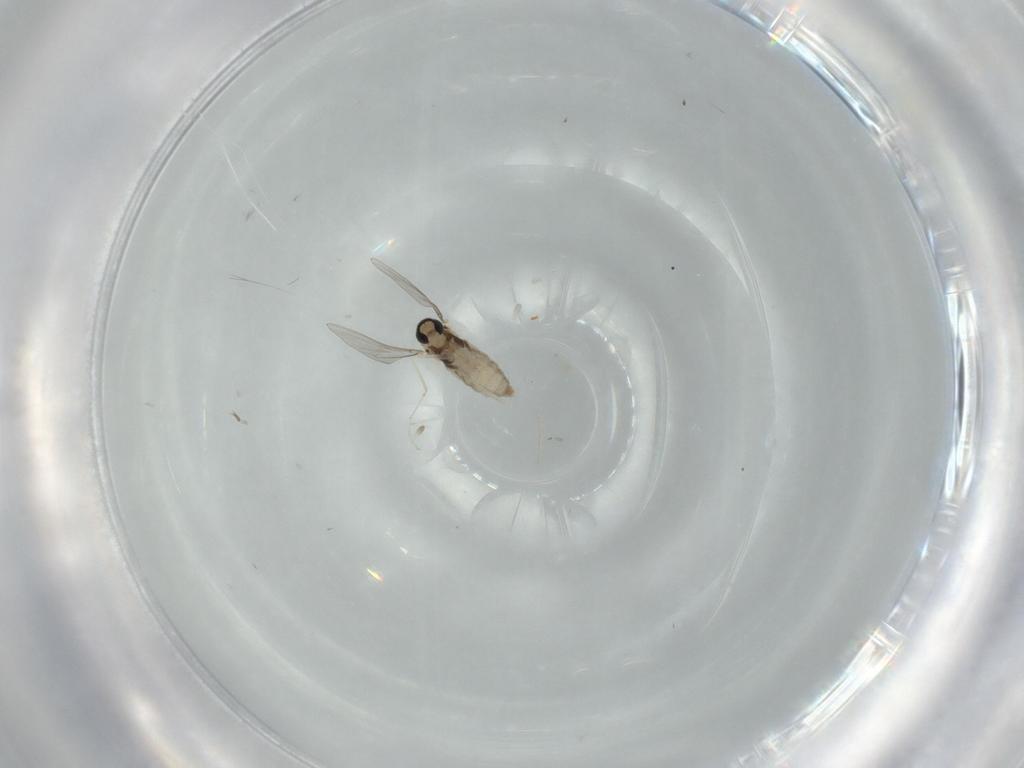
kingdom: Animalia
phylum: Arthropoda
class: Insecta
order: Diptera
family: Cecidomyiidae
